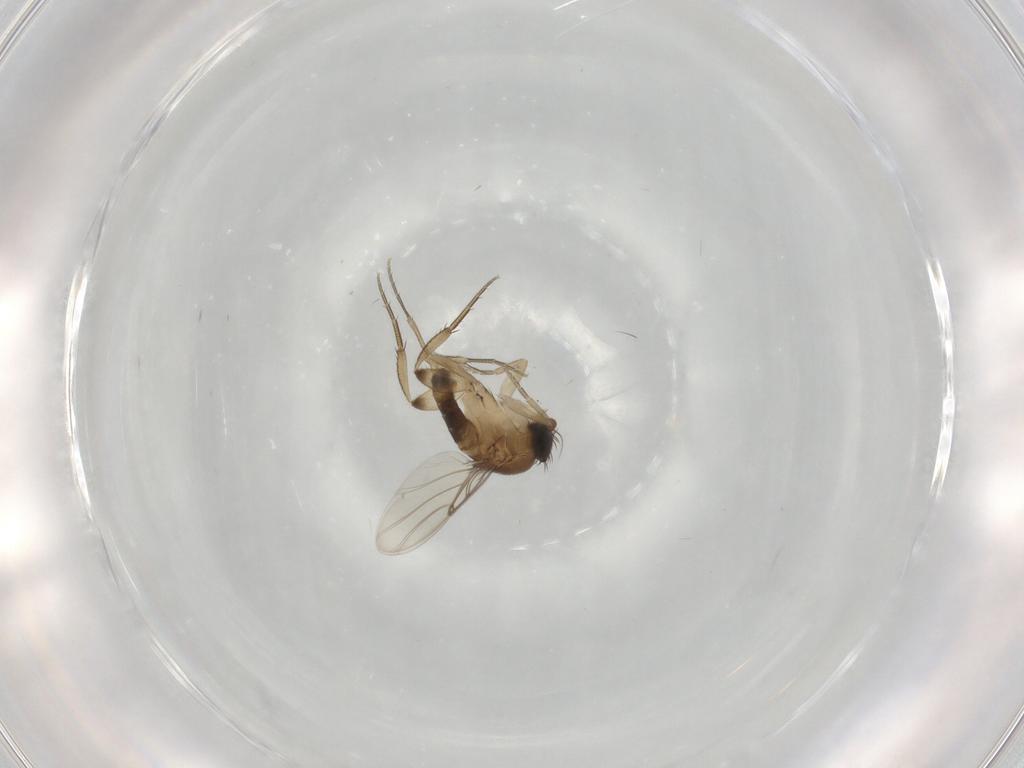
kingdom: Animalia
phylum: Arthropoda
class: Insecta
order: Diptera
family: Phoridae
